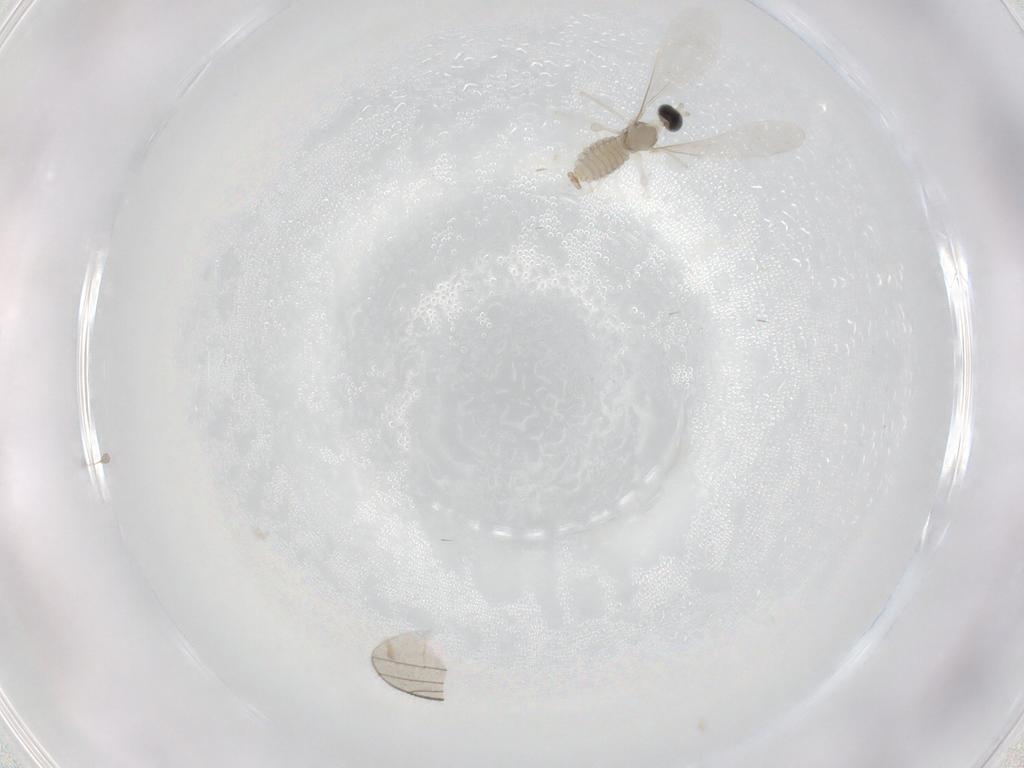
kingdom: Animalia
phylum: Arthropoda
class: Insecta
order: Diptera
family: Cecidomyiidae
